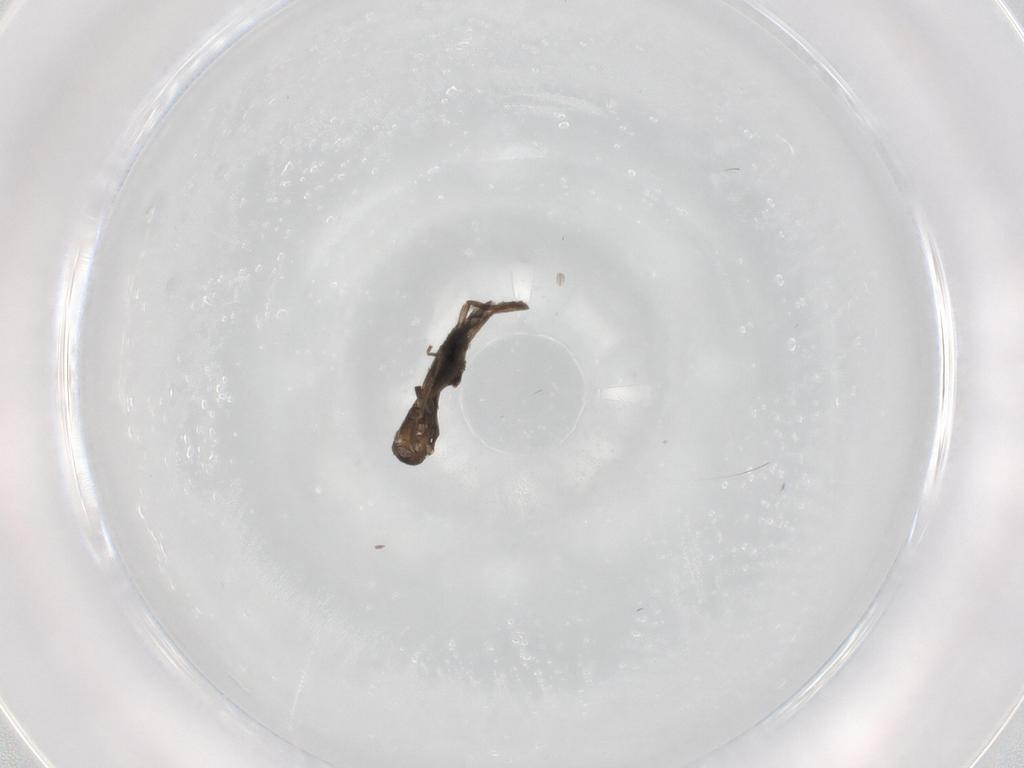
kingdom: Animalia
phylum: Arthropoda
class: Insecta
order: Diptera
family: Phoridae
